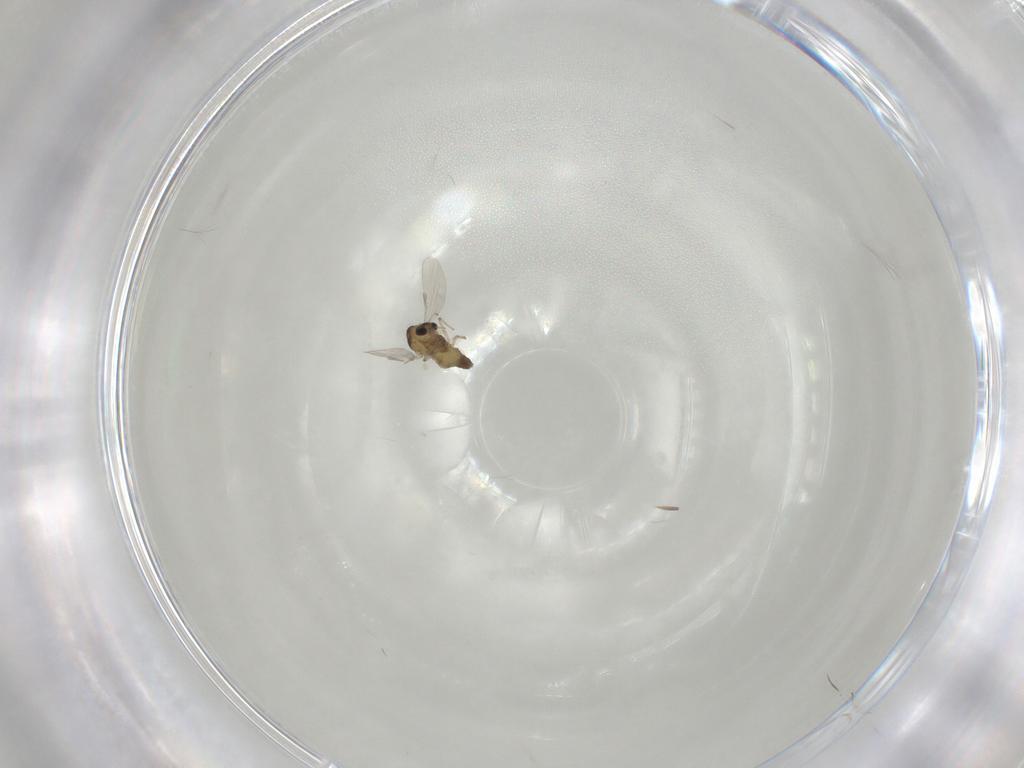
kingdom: Animalia
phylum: Arthropoda
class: Insecta
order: Diptera
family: Chironomidae
